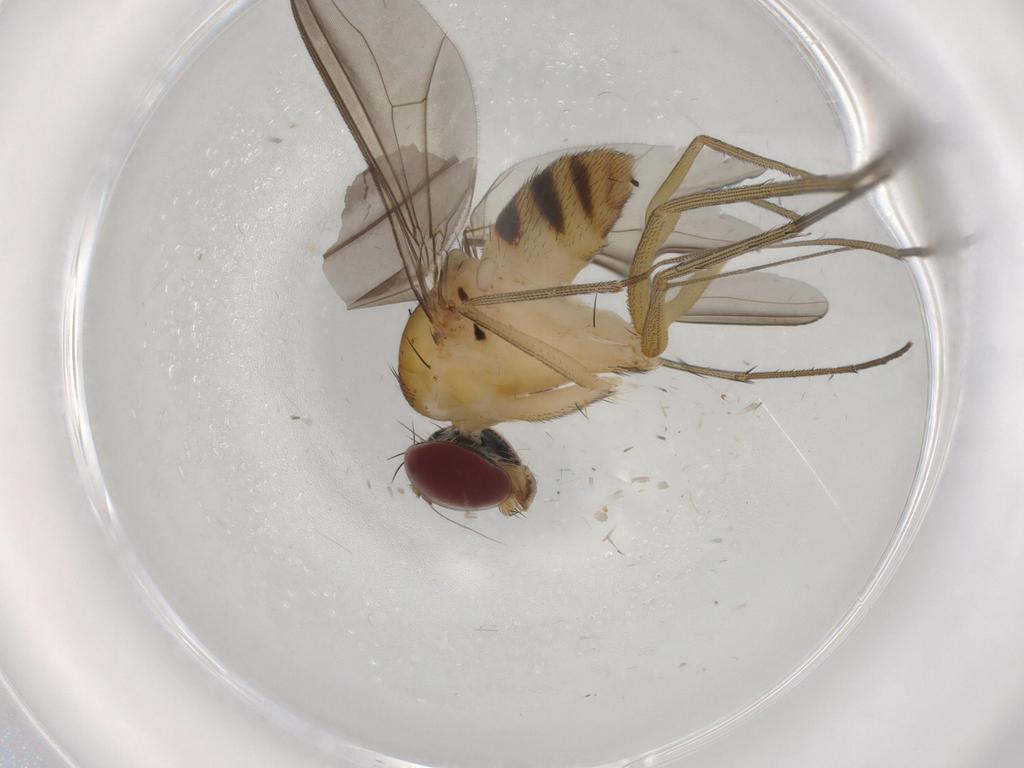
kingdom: Animalia
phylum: Arthropoda
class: Insecta
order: Diptera
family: Dolichopodidae
